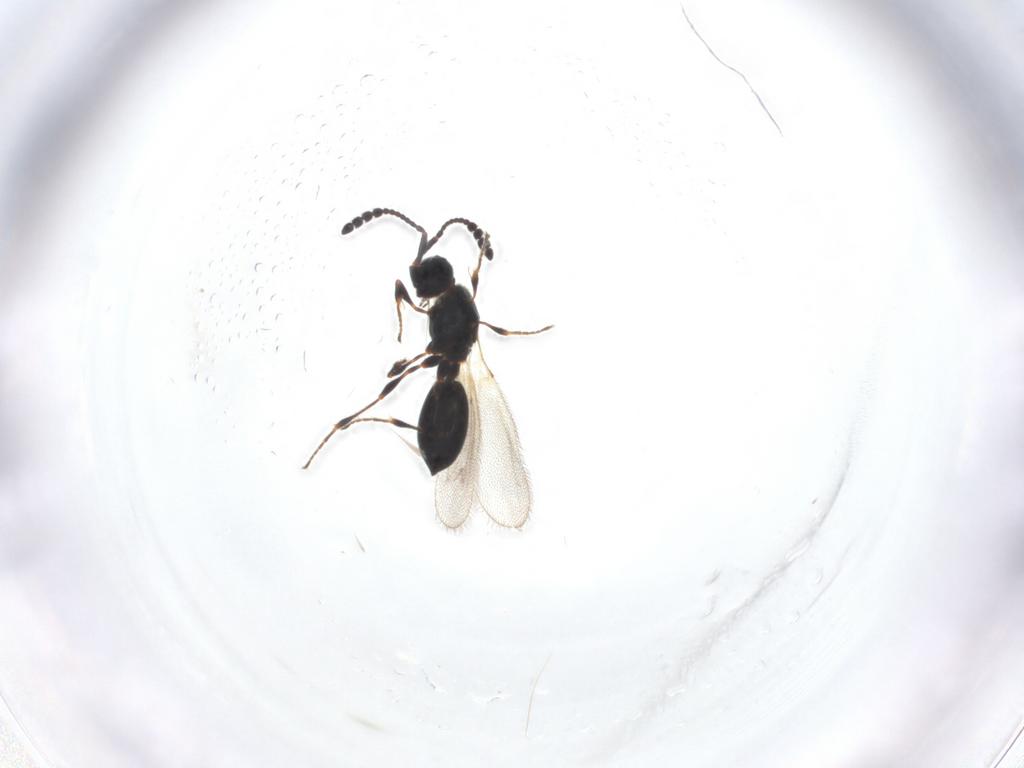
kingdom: Animalia
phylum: Arthropoda
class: Insecta
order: Hymenoptera
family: Diapriidae
